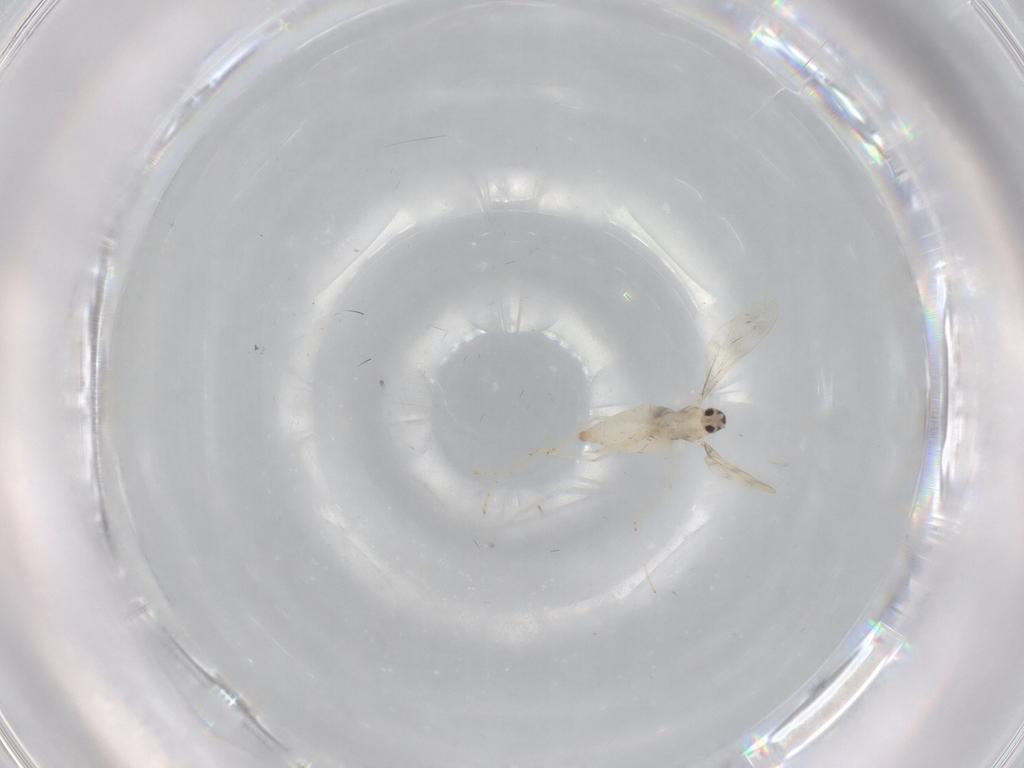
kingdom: Animalia
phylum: Arthropoda
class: Insecta
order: Diptera
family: Cecidomyiidae
